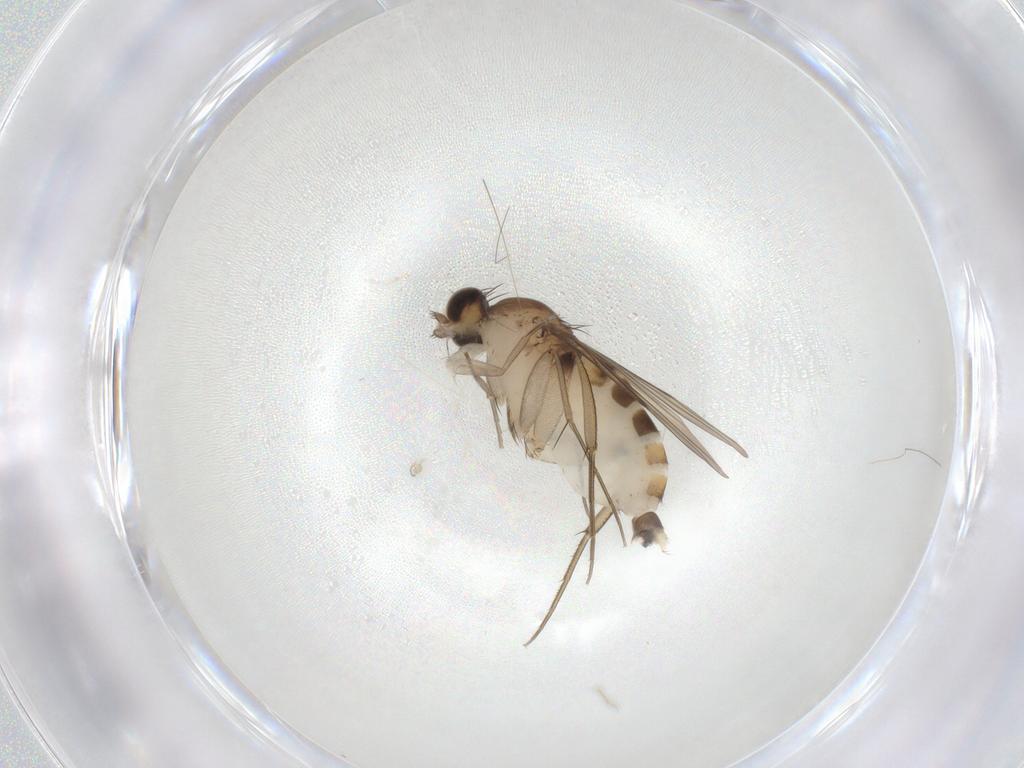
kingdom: Animalia
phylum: Arthropoda
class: Insecta
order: Diptera
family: Phoridae
